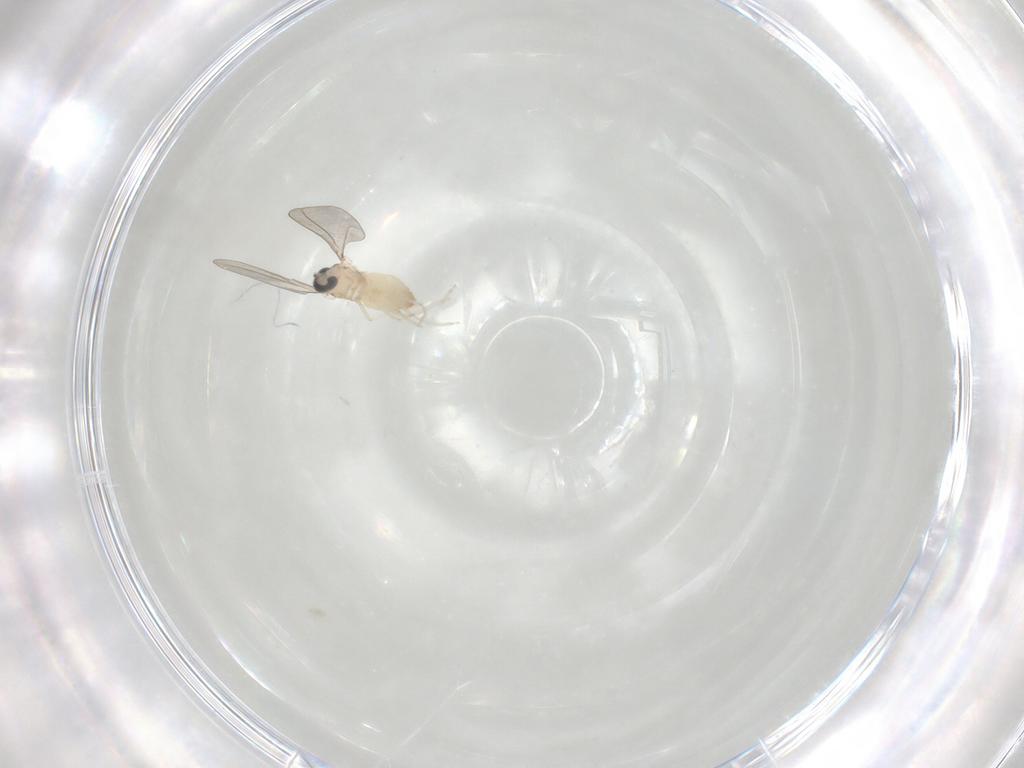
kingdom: Animalia
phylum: Arthropoda
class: Insecta
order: Diptera
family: Cecidomyiidae
